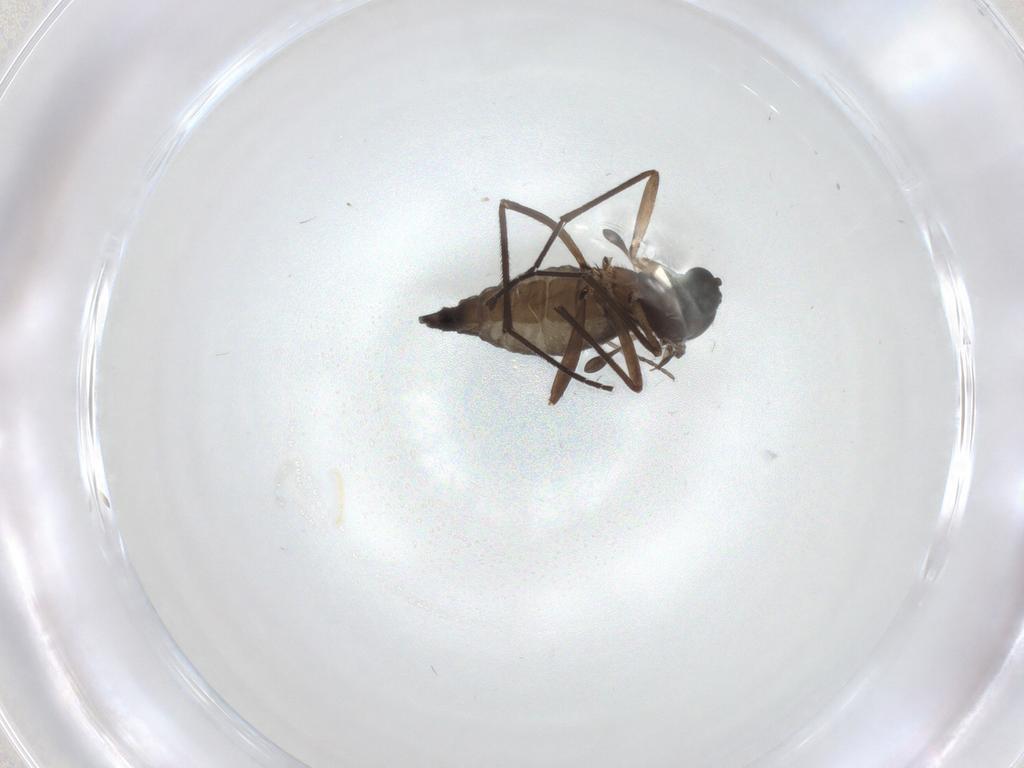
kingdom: Animalia
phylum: Arthropoda
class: Insecta
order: Diptera
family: Sciaridae
